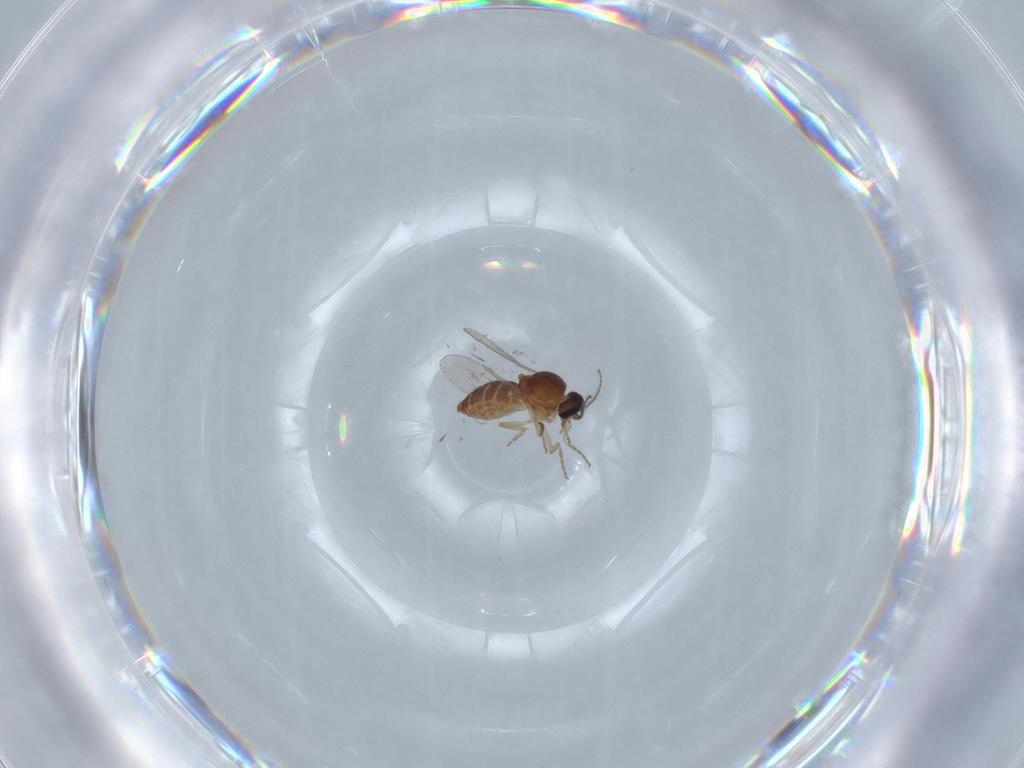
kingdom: Animalia
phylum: Arthropoda
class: Insecta
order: Diptera
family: Ceratopogonidae
